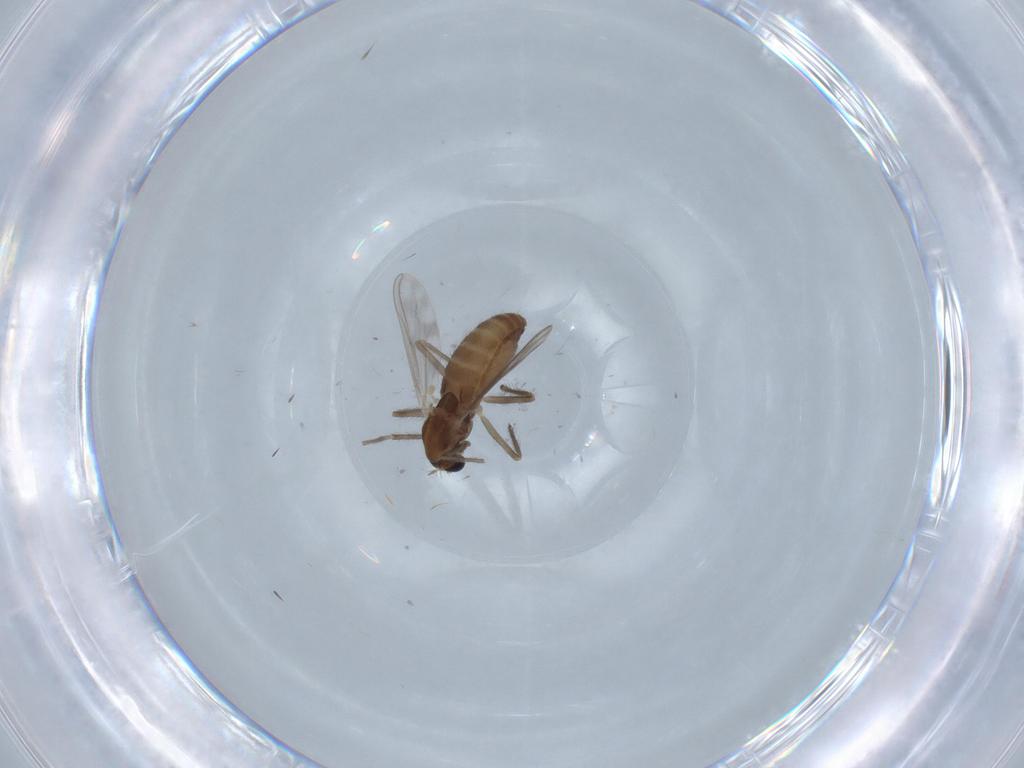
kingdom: Animalia
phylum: Arthropoda
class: Insecta
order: Diptera
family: Chironomidae
